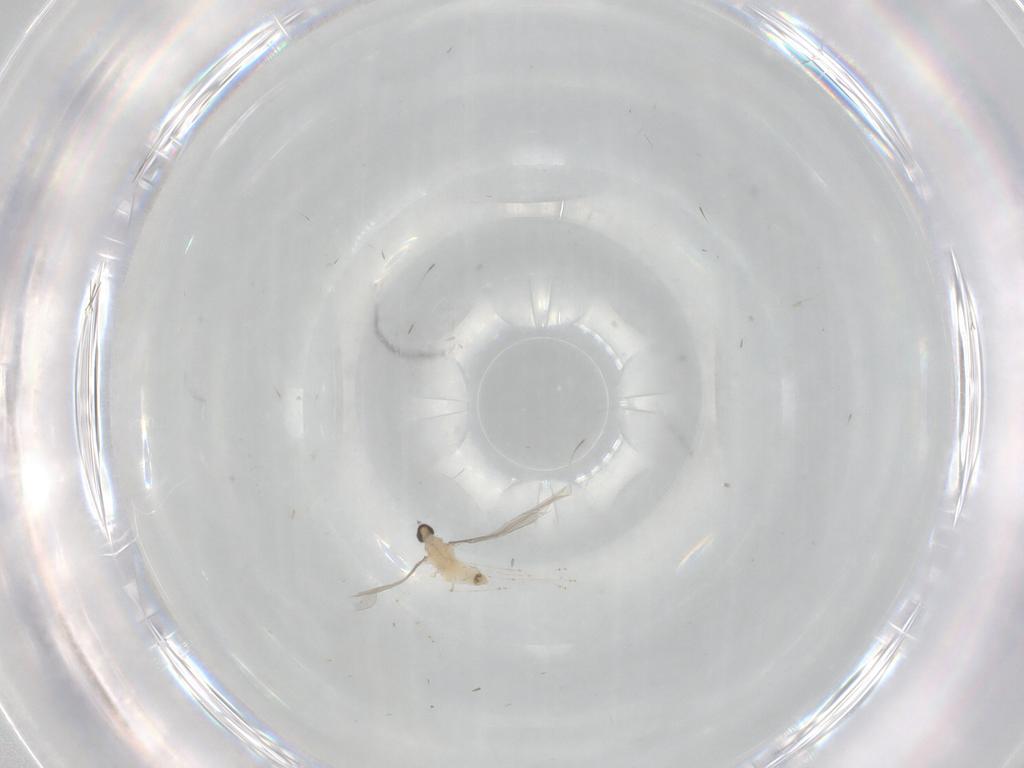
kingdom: Animalia
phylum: Arthropoda
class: Insecta
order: Diptera
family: Cecidomyiidae
